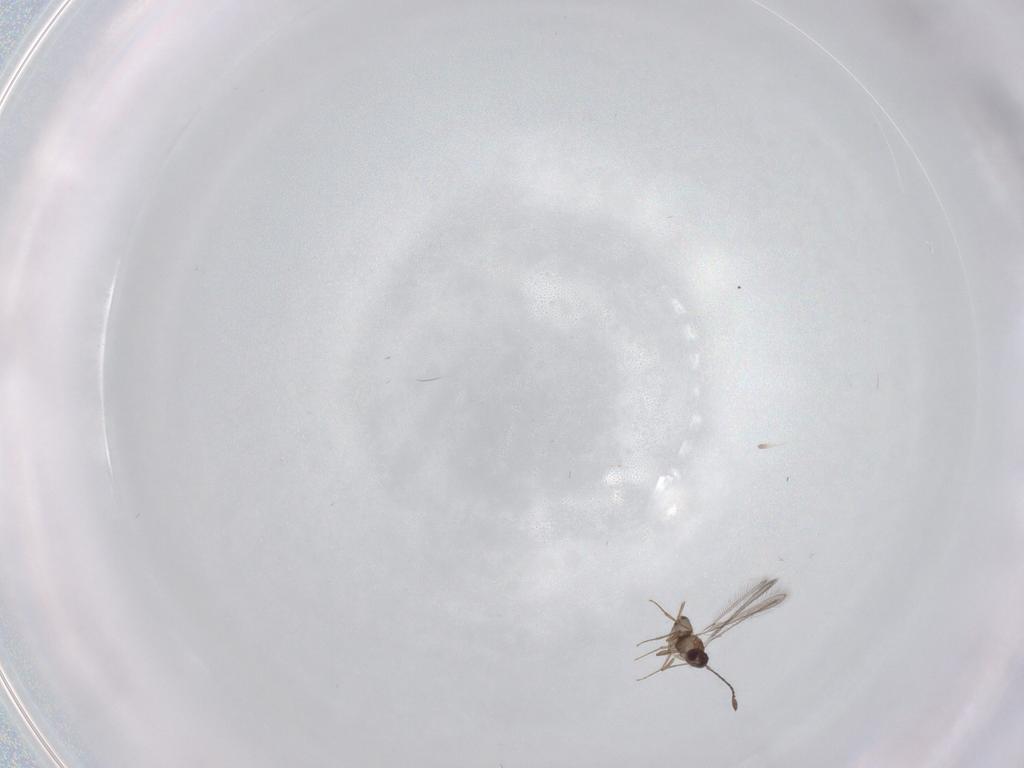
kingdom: Animalia
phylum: Arthropoda
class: Insecta
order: Hymenoptera
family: Mymaridae
